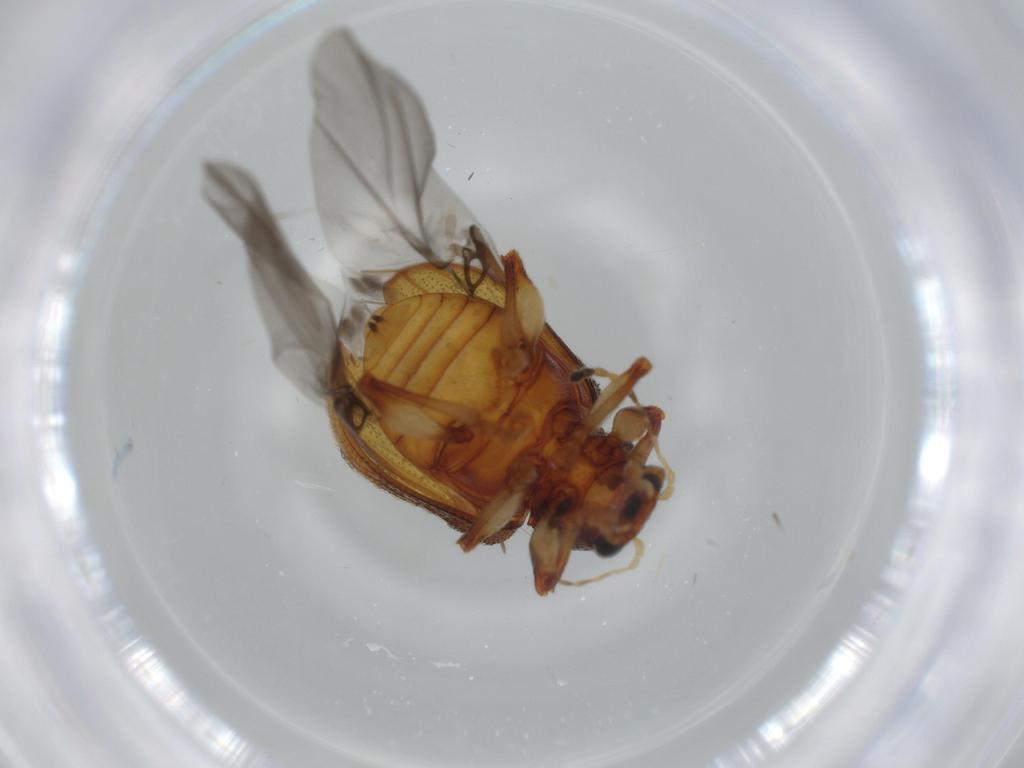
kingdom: Animalia
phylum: Arthropoda
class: Insecta
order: Coleoptera
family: Chrysomelidae
